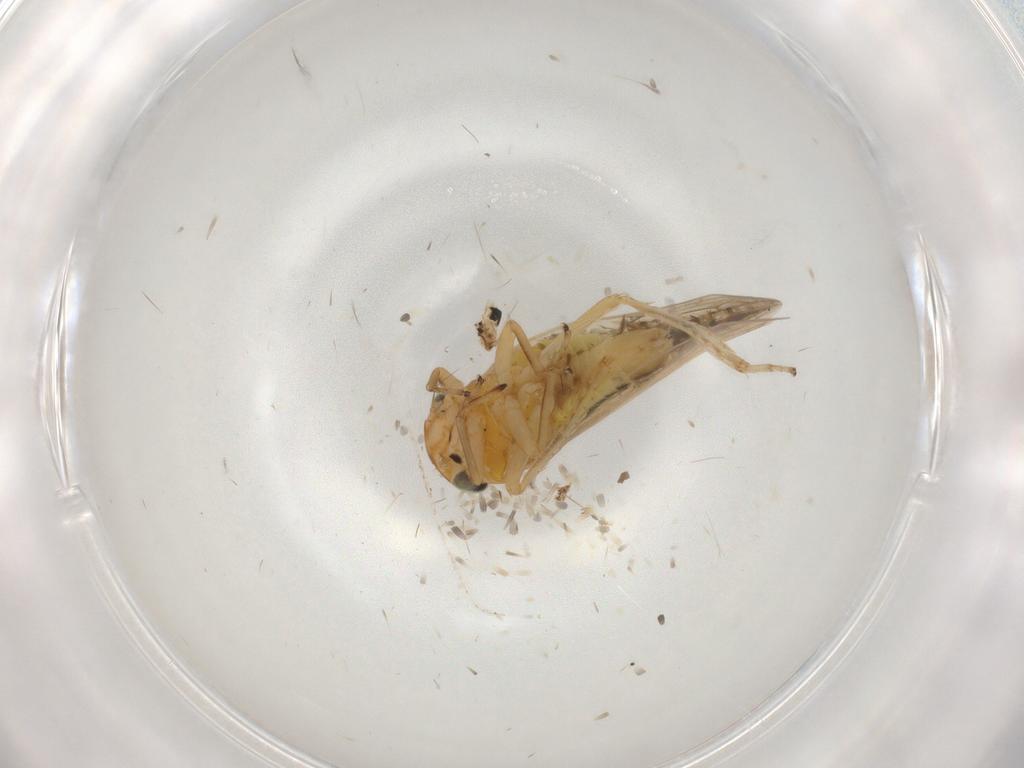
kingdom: Animalia
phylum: Arthropoda
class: Insecta
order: Hemiptera
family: Cicadellidae
